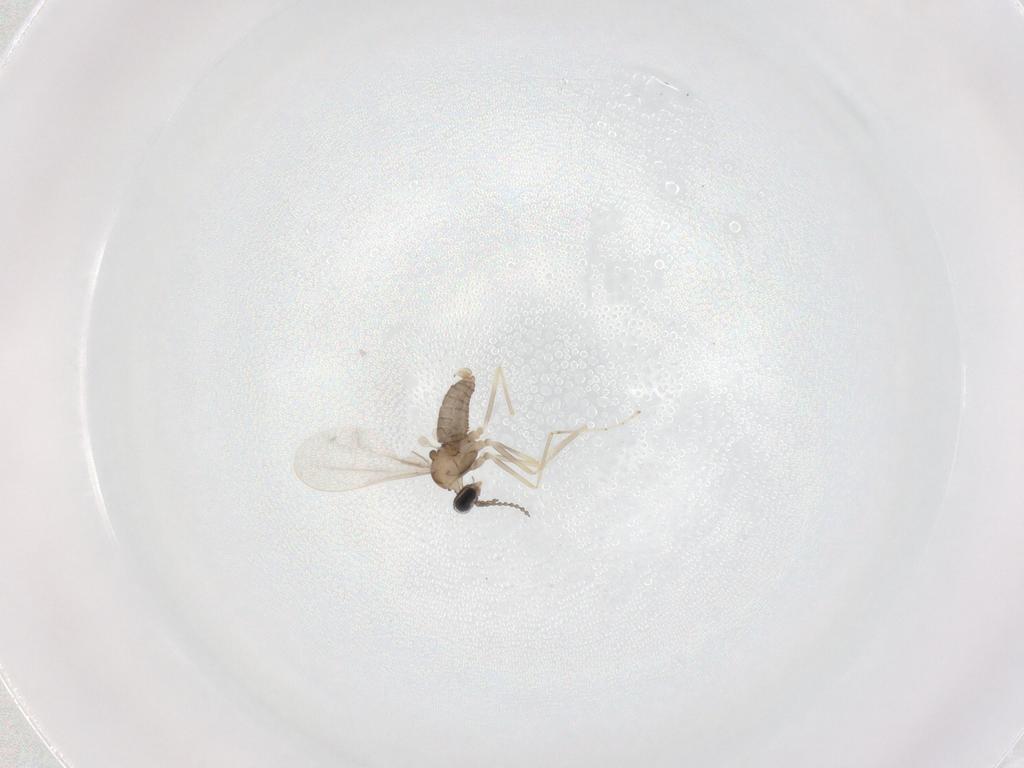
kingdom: Animalia
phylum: Arthropoda
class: Insecta
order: Diptera
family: Cecidomyiidae
